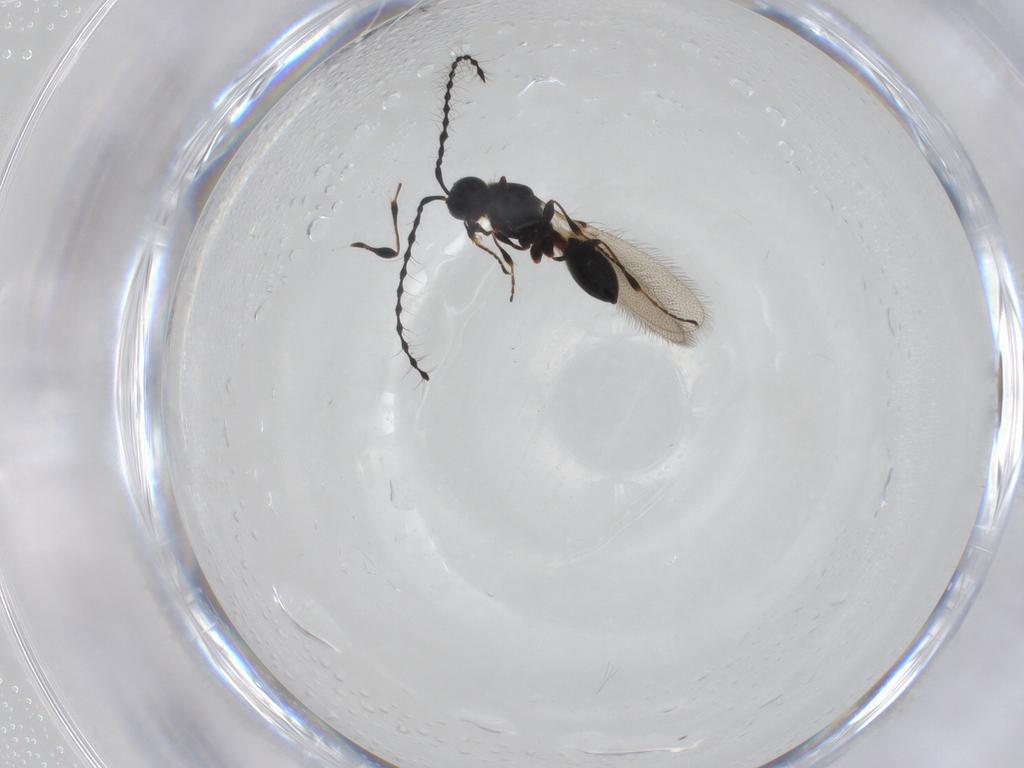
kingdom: Animalia
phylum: Arthropoda
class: Insecta
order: Hymenoptera
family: Diapriidae
